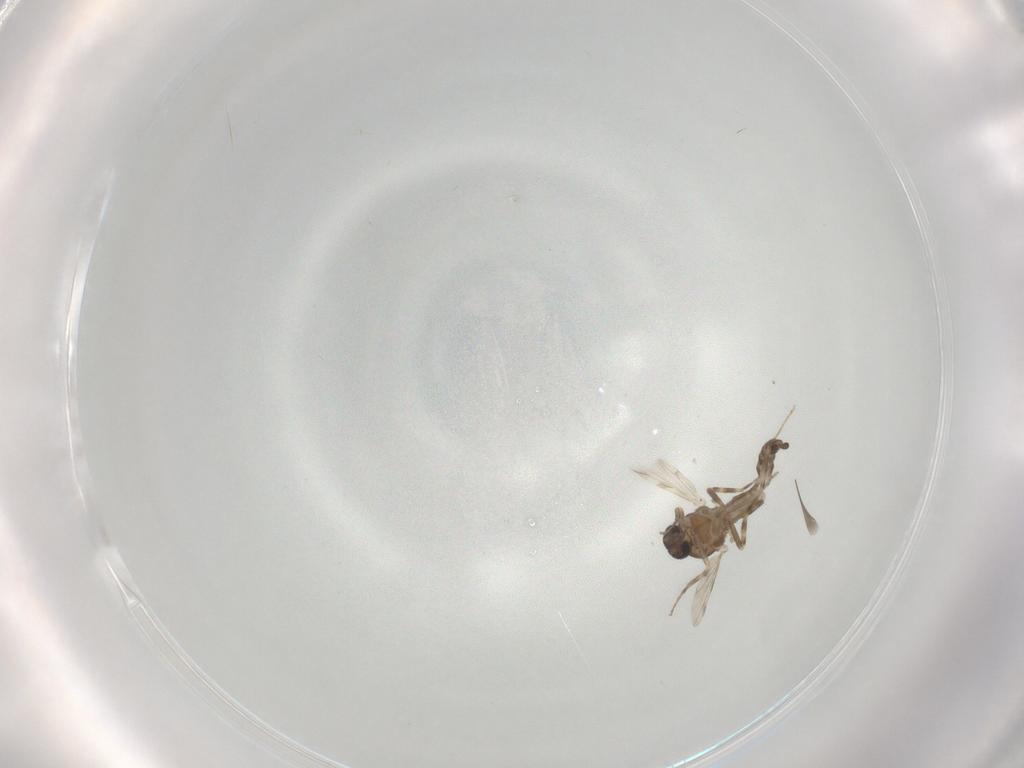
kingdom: Animalia
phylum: Arthropoda
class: Insecta
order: Diptera
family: Ceratopogonidae
